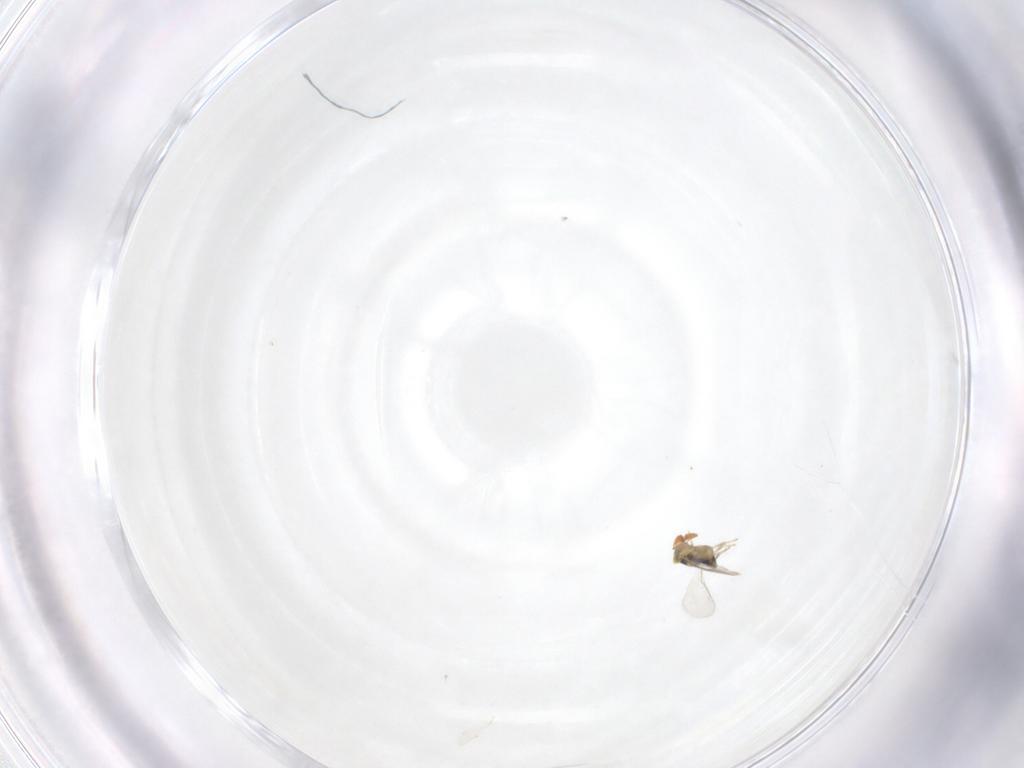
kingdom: Animalia
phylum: Arthropoda
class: Insecta
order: Hymenoptera
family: Aphelinidae
